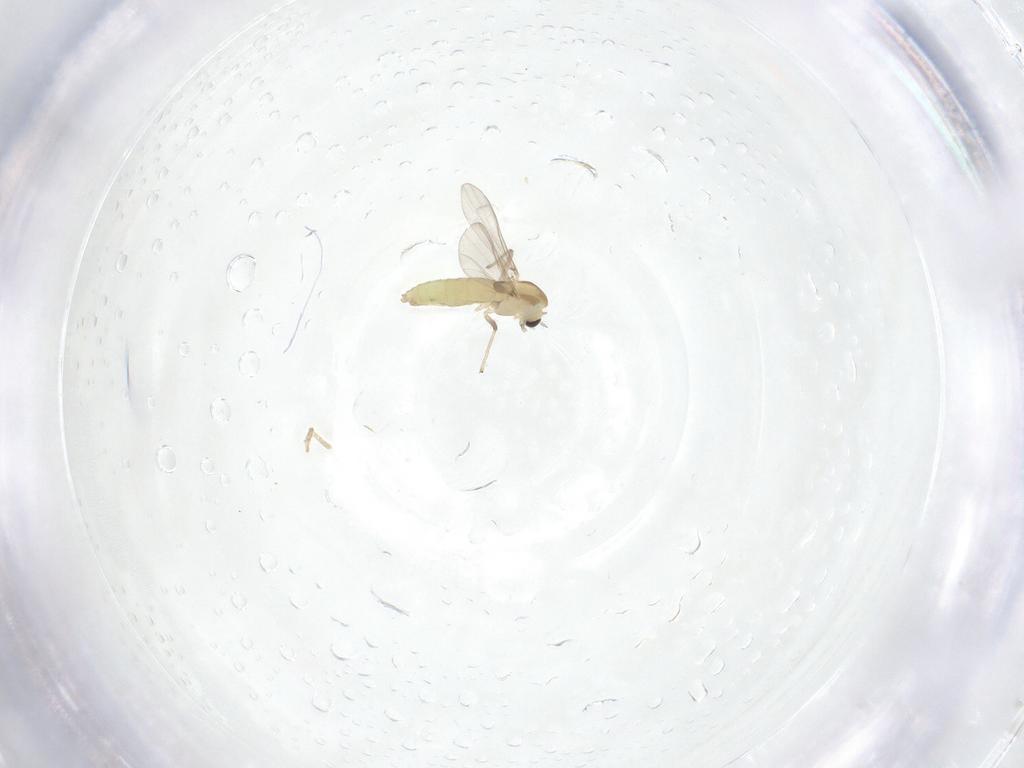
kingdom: Animalia
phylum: Arthropoda
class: Insecta
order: Diptera
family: Chironomidae
